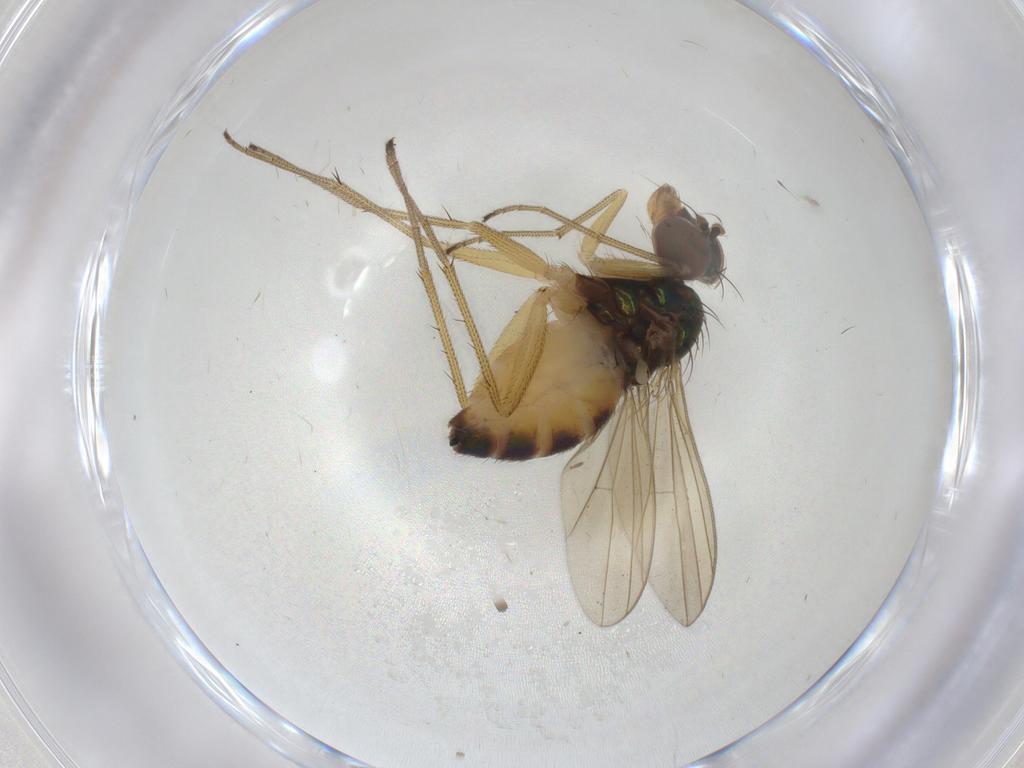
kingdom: Animalia
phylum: Arthropoda
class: Insecta
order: Diptera
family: Dolichopodidae
